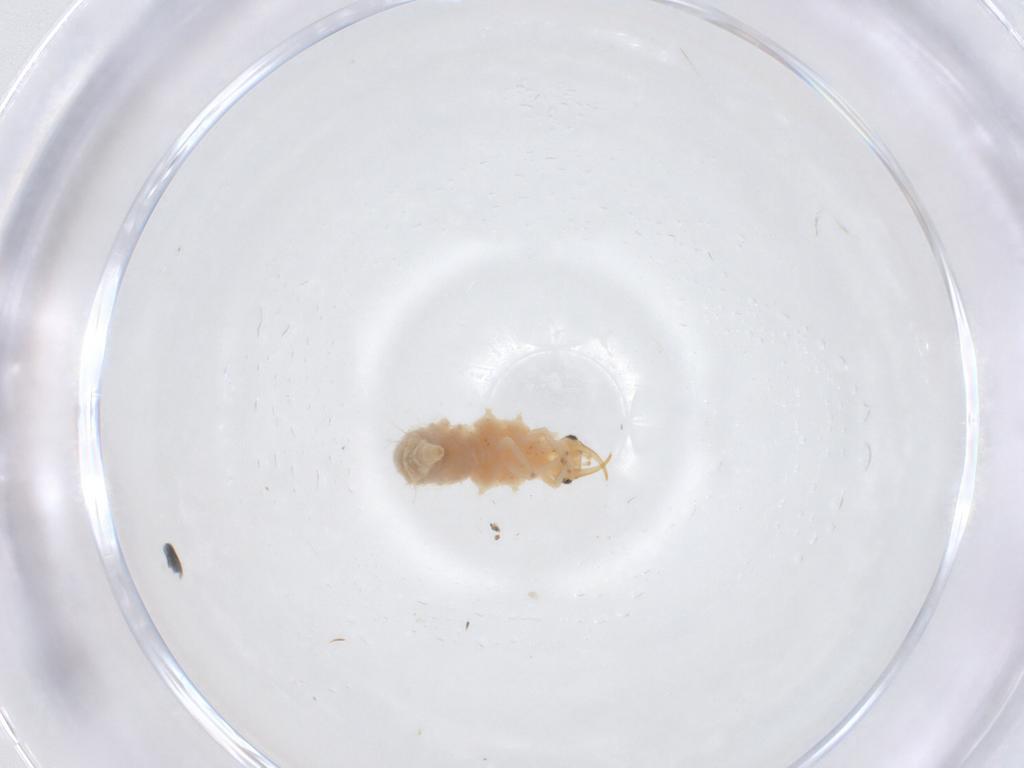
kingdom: Animalia
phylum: Arthropoda
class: Insecta
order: Neuroptera
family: Chrysopidae
